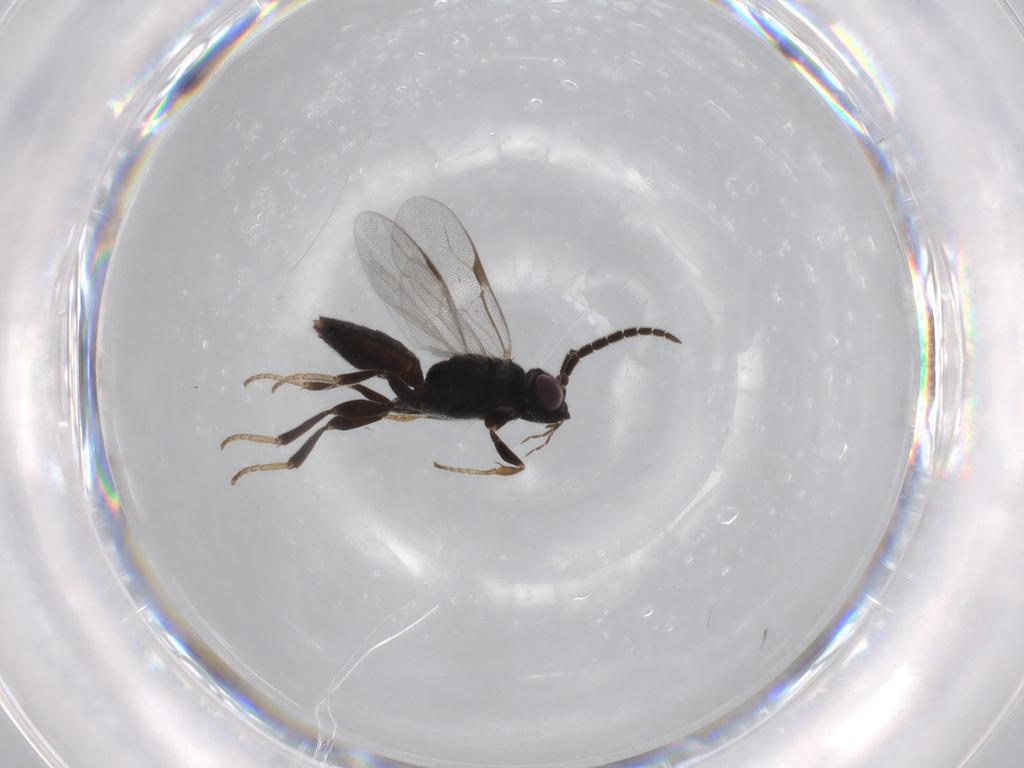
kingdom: Animalia
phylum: Arthropoda
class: Insecta
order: Hymenoptera
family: Dryinidae
